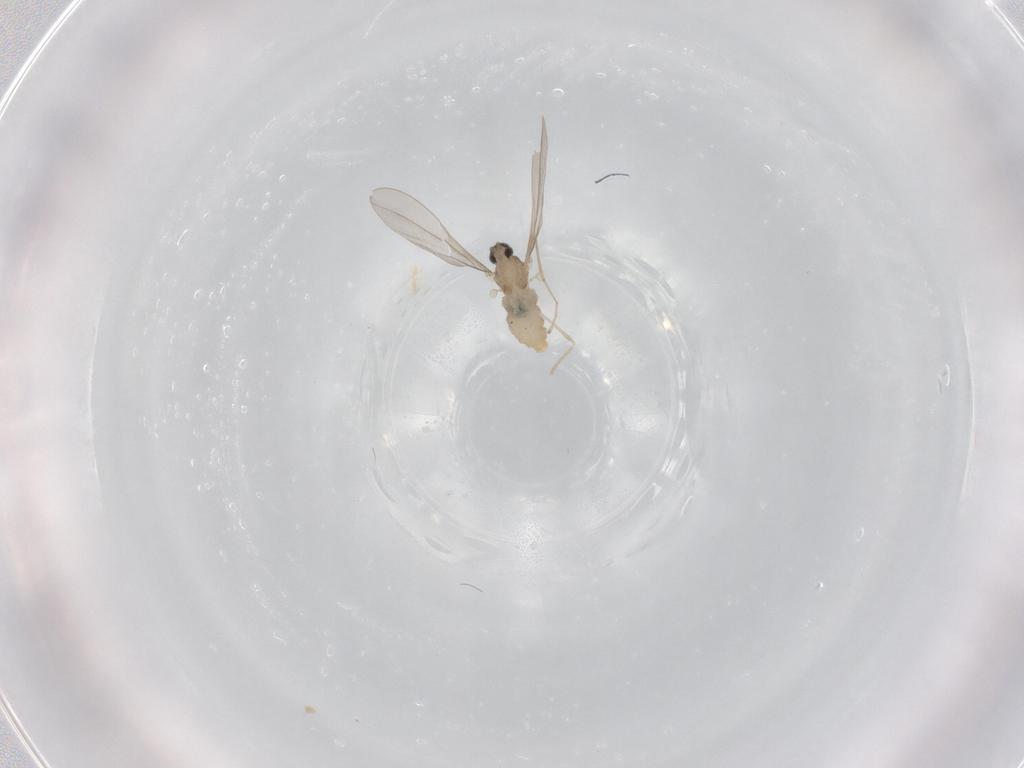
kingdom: Animalia
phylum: Arthropoda
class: Insecta
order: Diptera
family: Cecidomyiidae
